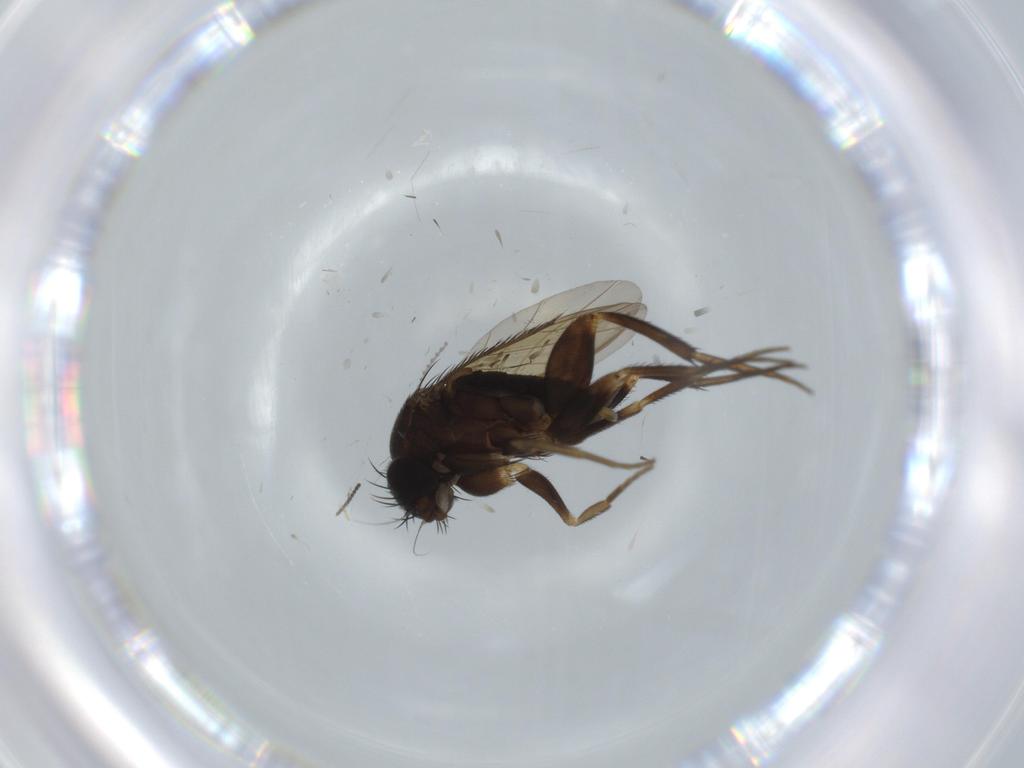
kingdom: Animalia
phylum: Arthropoda
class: Insecta
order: Diptera
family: Phoridae
